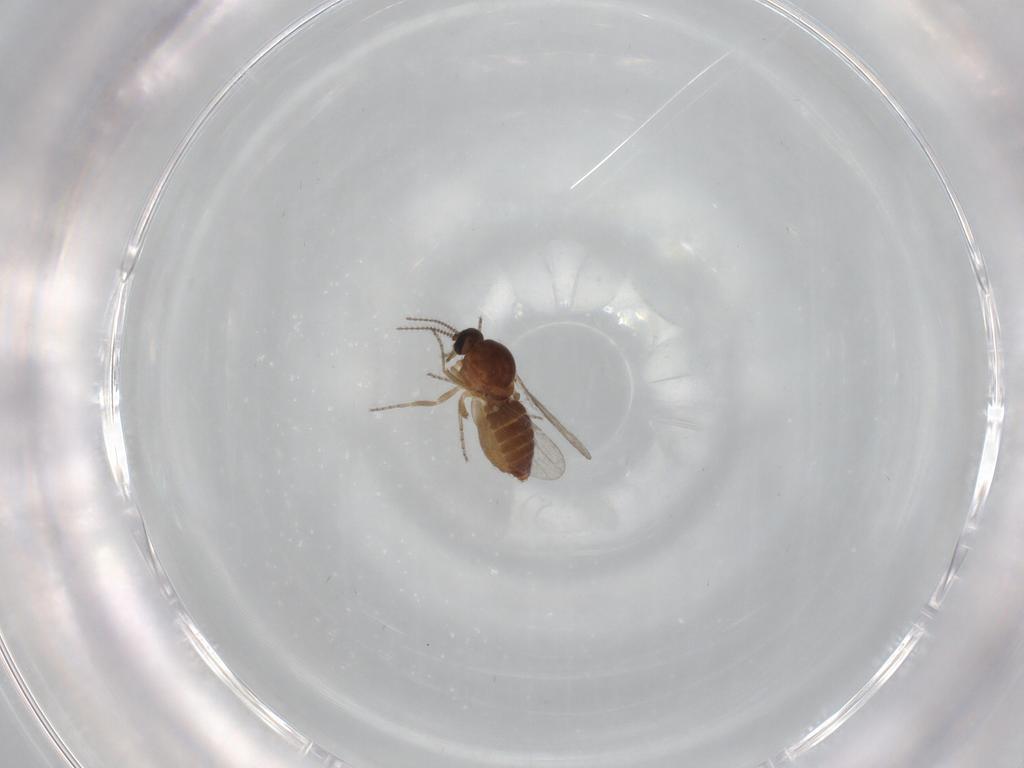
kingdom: Animalia
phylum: Arthropoda
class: Insecta
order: Diptera
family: Ceratopogonidae
